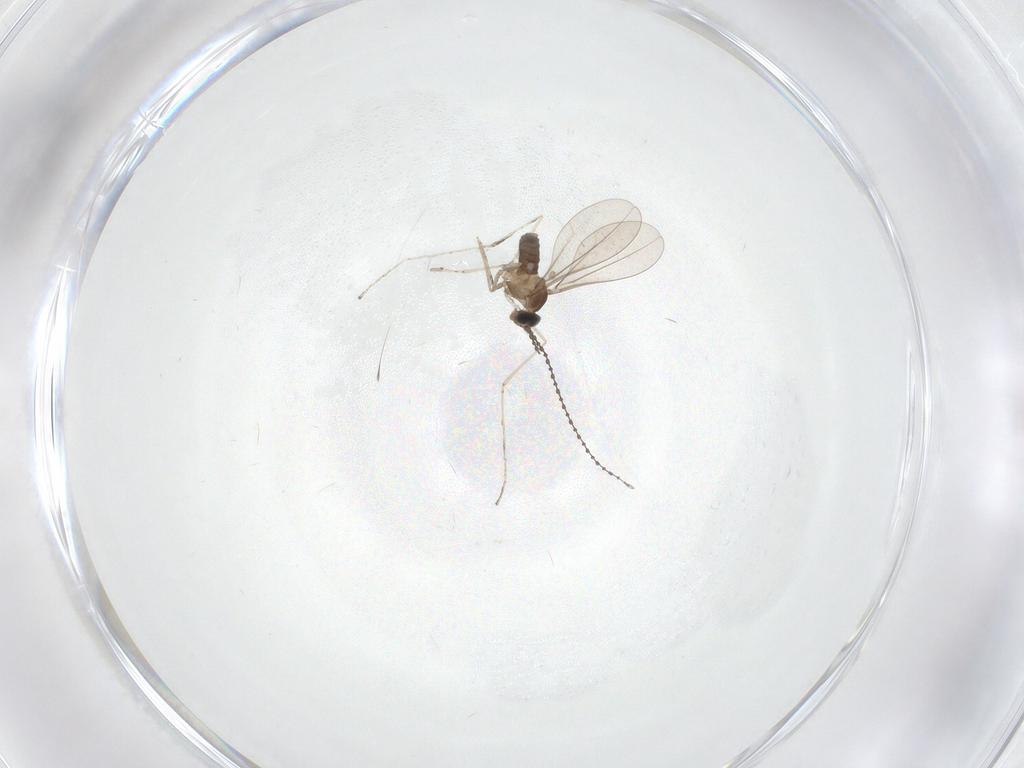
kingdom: Animalia
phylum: Arthropoda
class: Insecta
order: Diptera
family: Cecidomyiidae
